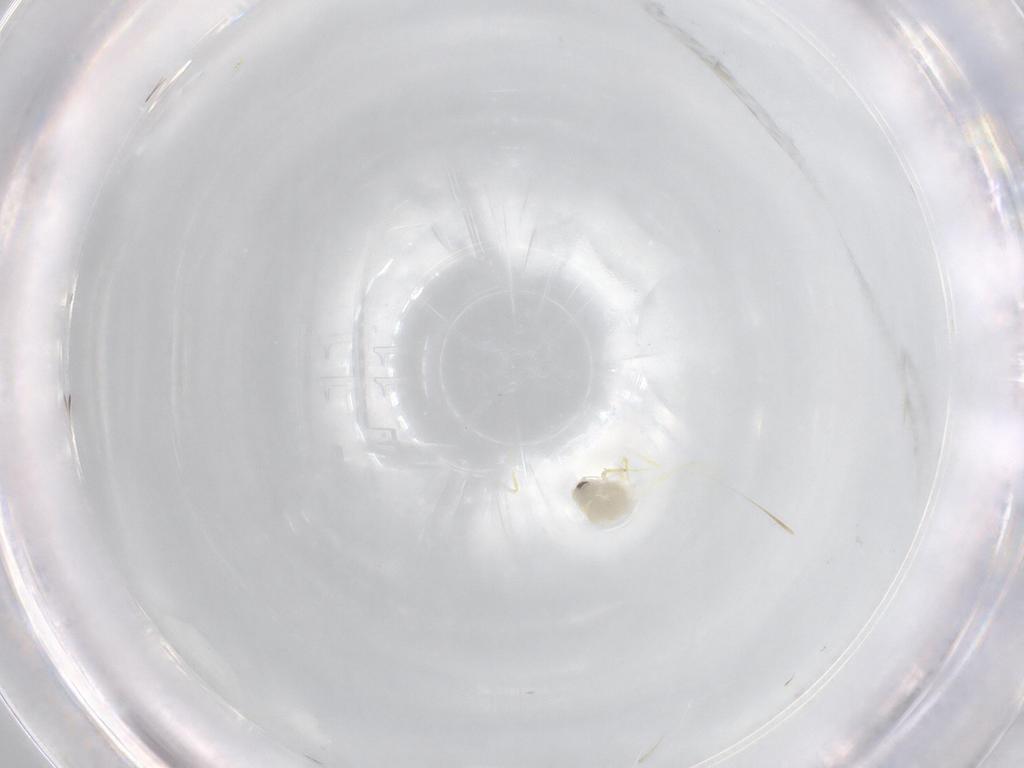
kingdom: Animalia
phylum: Arthropoda
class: Insecta
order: Hemiptera
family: Aleyrodidae
